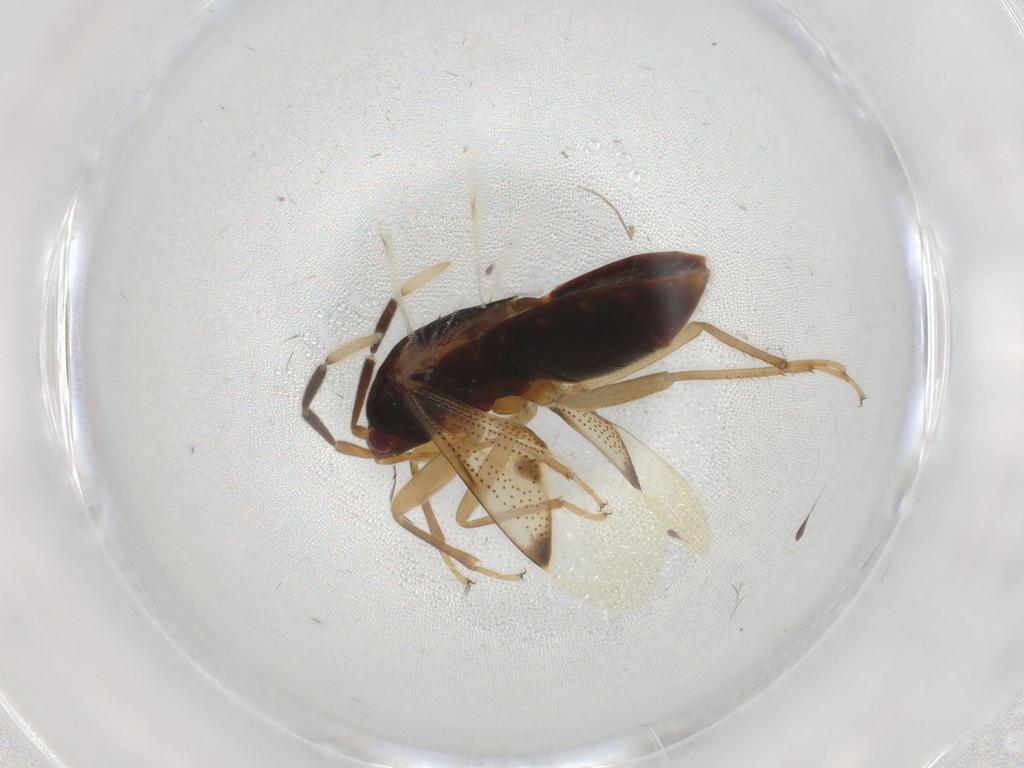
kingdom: Animalia
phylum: Arthropoda
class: Insecta
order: Hemiptera
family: Rhyparochromidae
